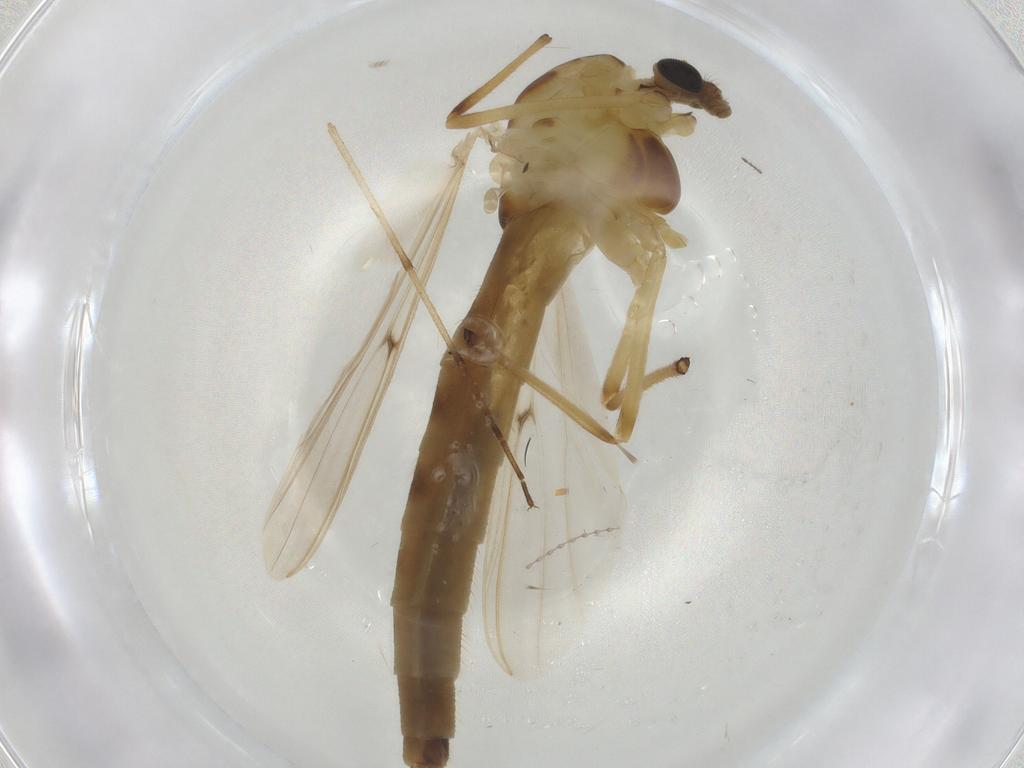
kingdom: Animalia
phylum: Arthropoda
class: Insecta
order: Diptera
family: Chironomidae
